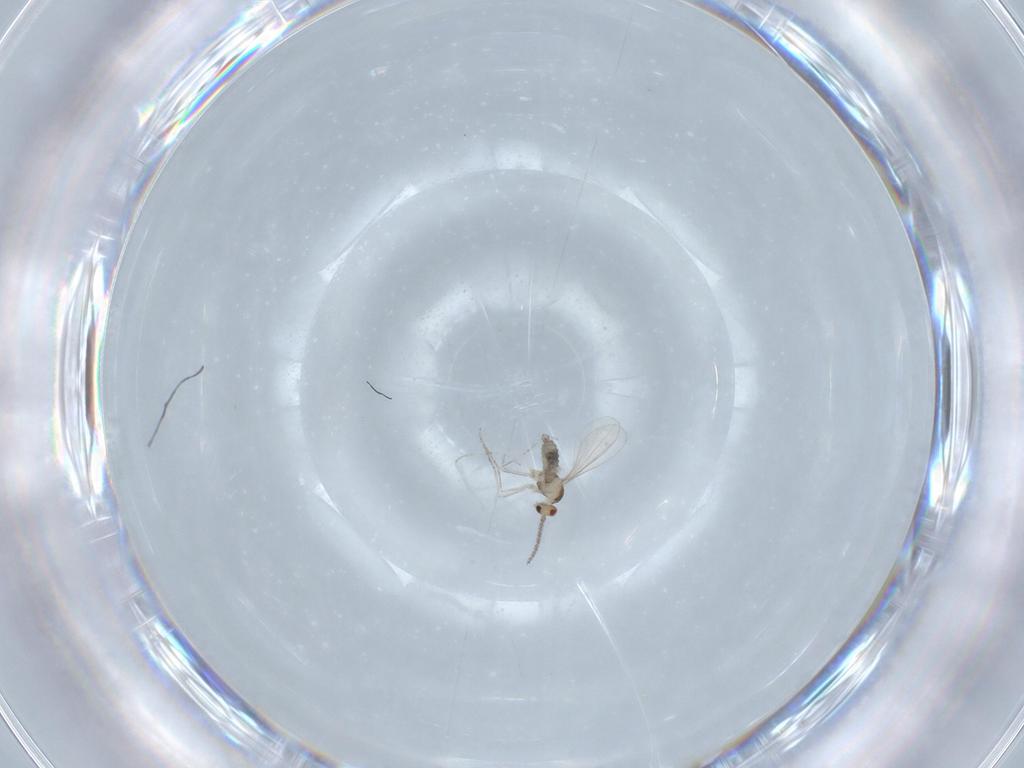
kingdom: Animalia
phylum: Arthropoda
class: Insecta
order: Diptera
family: Cecidomyiidae
